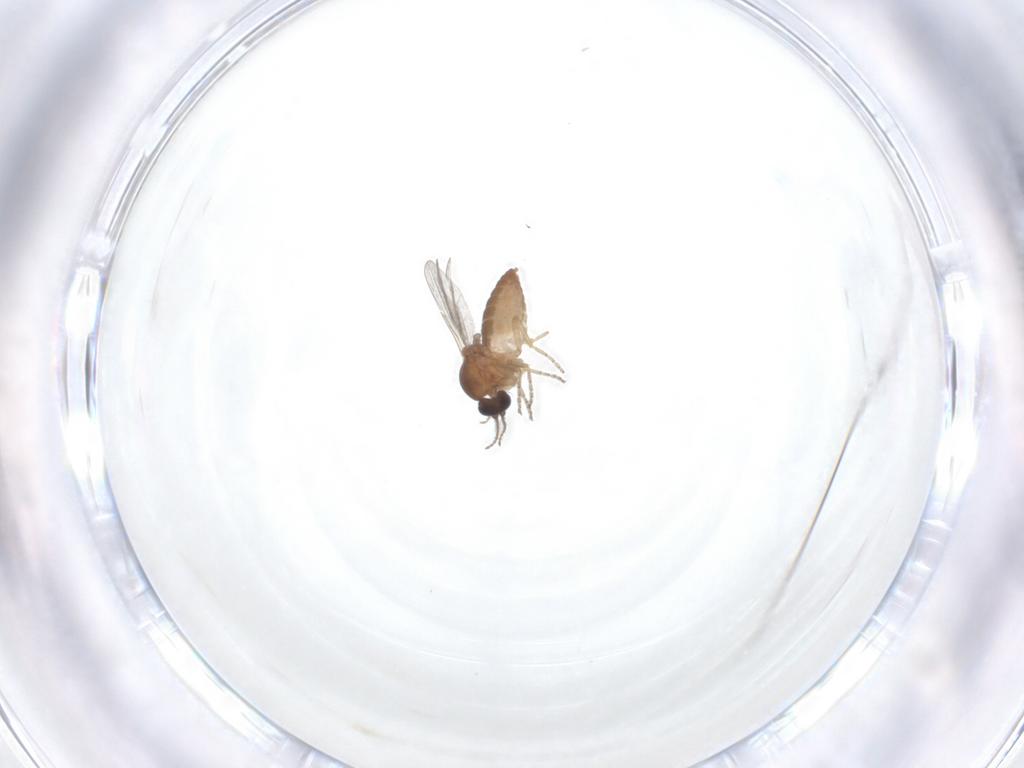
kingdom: Animalia
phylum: Arthropoda
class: Insecta
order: Diptera
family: Ceratopogonidae
